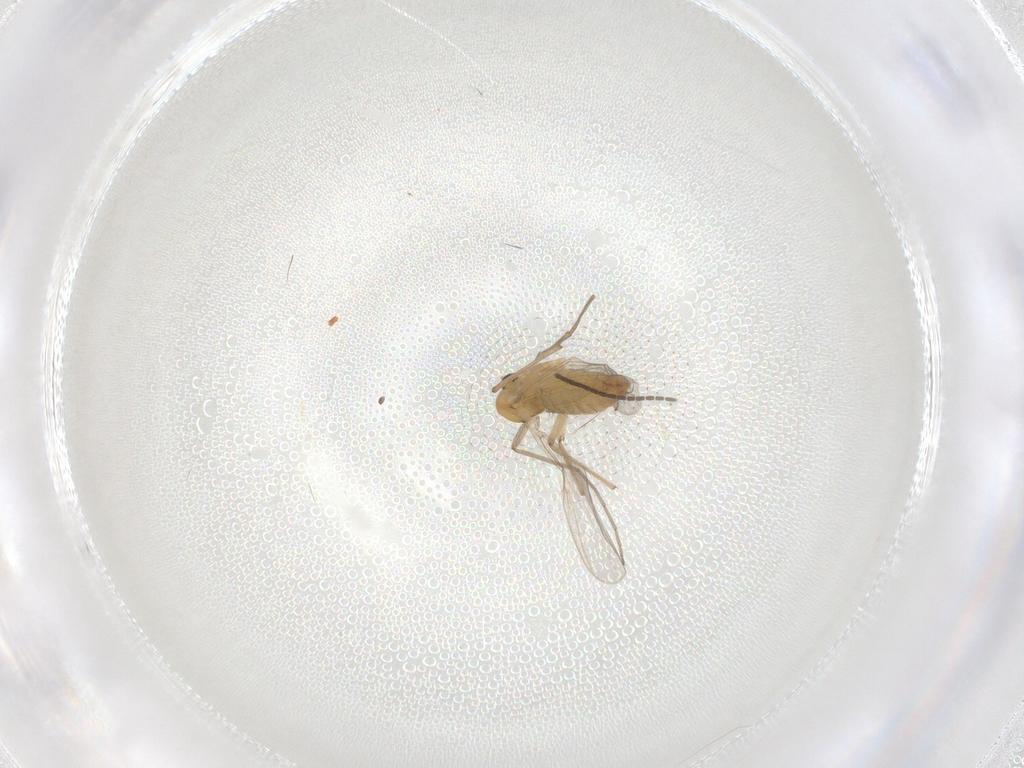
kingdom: Animalia
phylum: Arthropoda
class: Insecta
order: Diptera
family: Chironomidae
